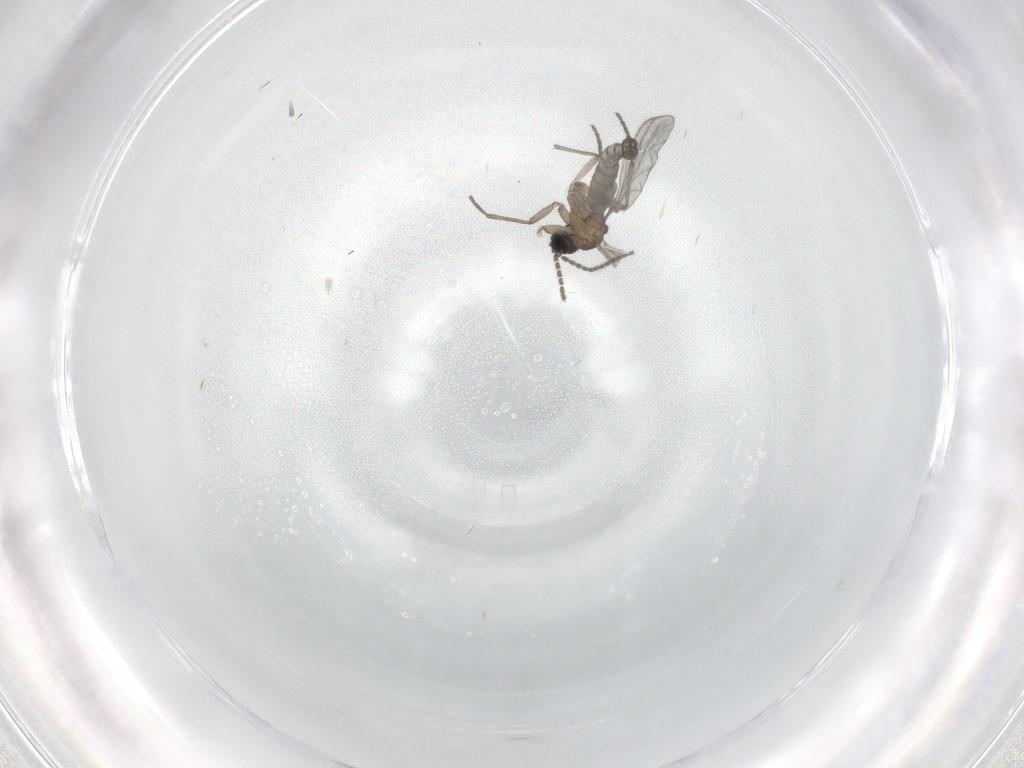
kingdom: Animalia
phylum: Arthropoda
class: Insecta
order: Diptera
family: Sciaridae
